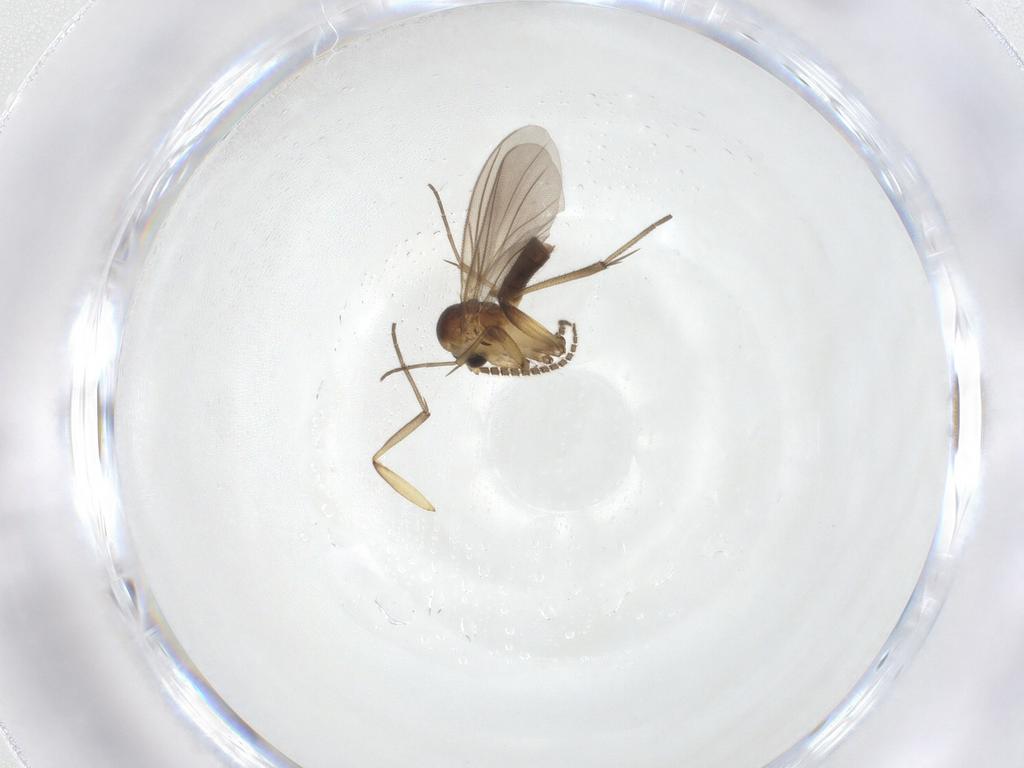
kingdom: Animalia
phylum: Arthropoda
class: Insecta
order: Diptera
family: Mycetophilidae
